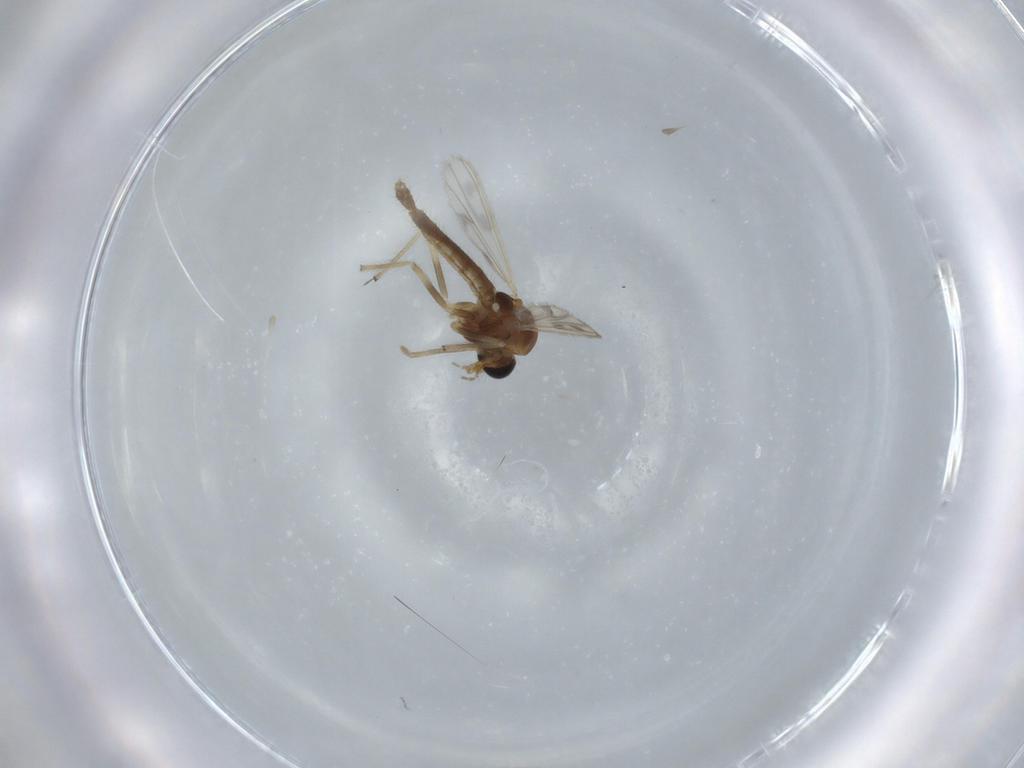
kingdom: Animalia
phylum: Arthropoda
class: Insecta
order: Diptera
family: Chironomidae
